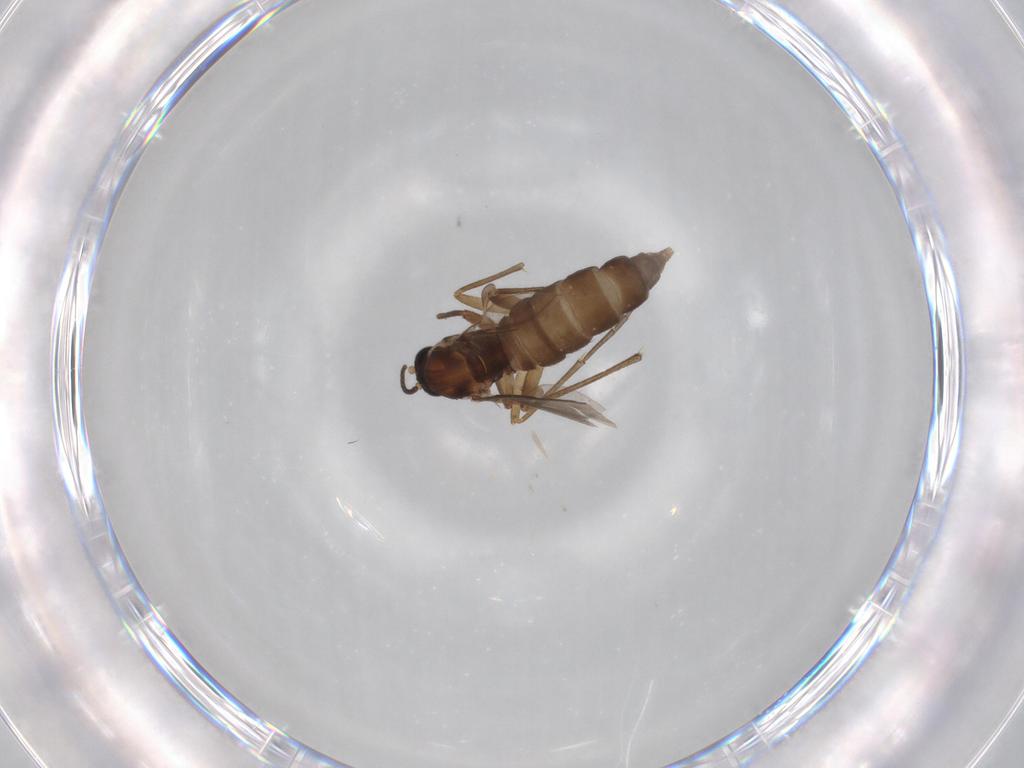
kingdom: Animalia
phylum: Arthropoda
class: Insecta
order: Diptera
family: Sciaridae
